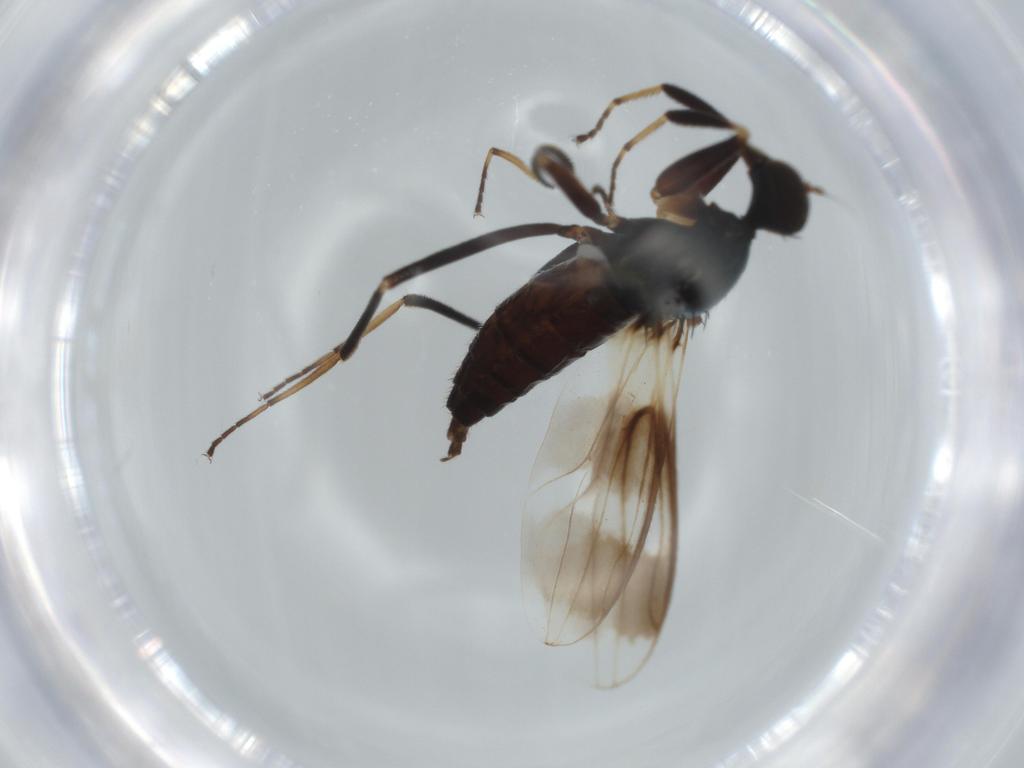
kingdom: Animalia
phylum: Arthropoda
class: Insecta
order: Diptera
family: Hybotidae
